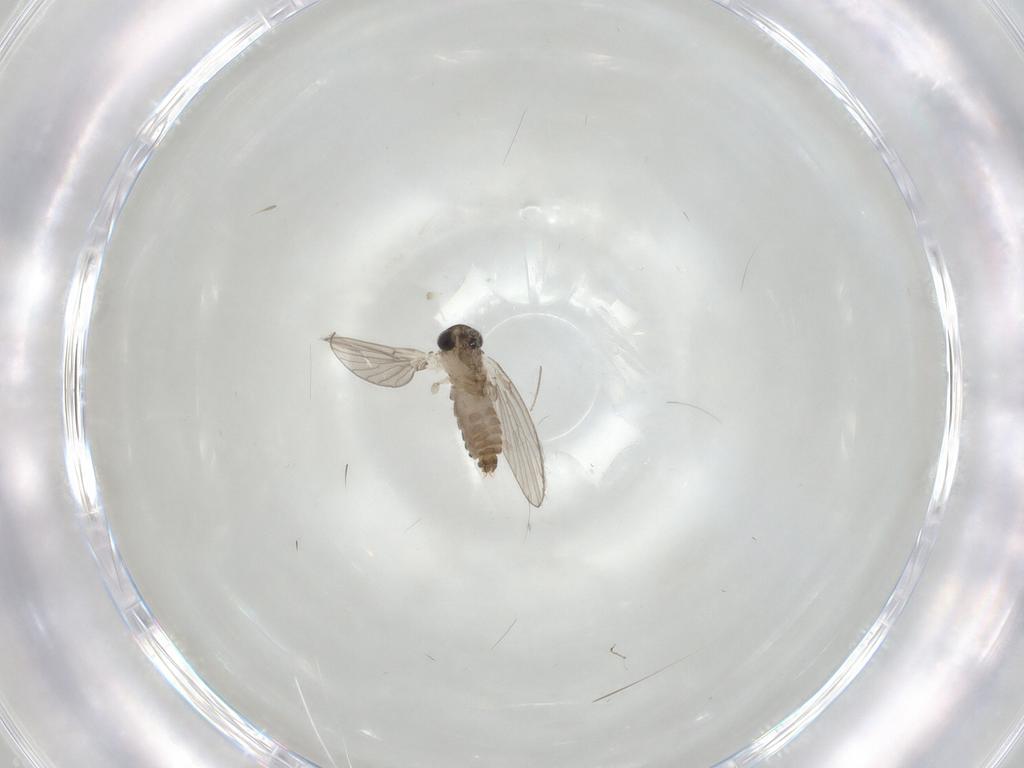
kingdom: Animalia
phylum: Arthropoda
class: Insecta
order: Diptera
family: Chironomidae
